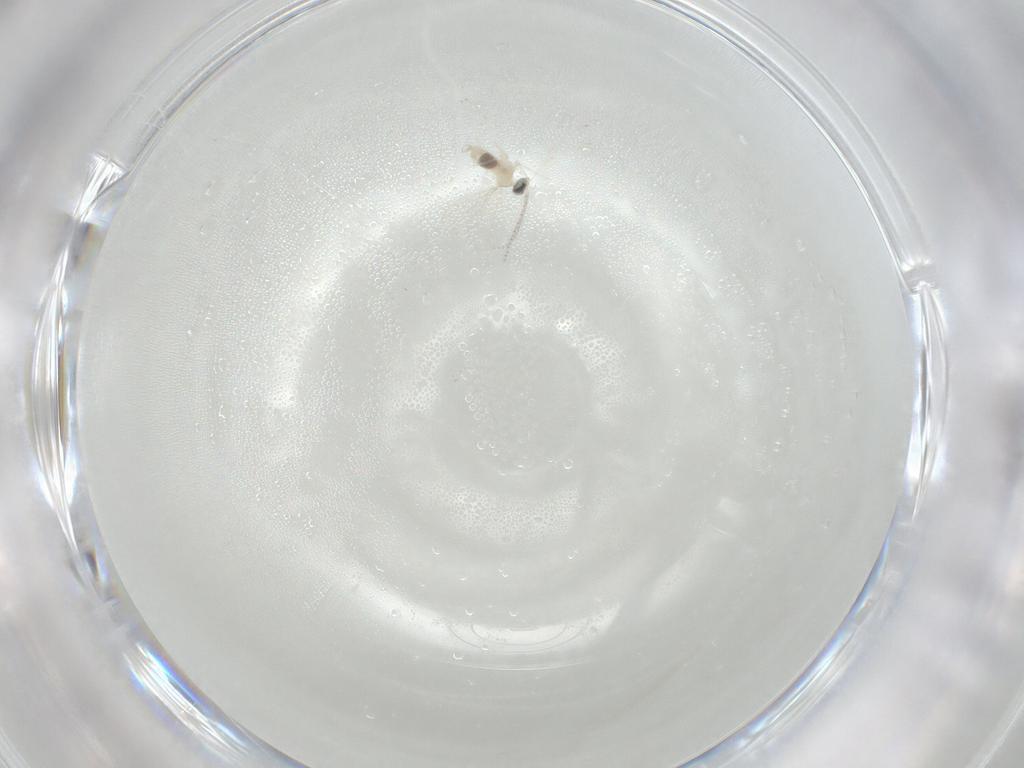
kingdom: Animalia
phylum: Arthropoda
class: Insecta
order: Diptera
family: Cecidomyiidae
